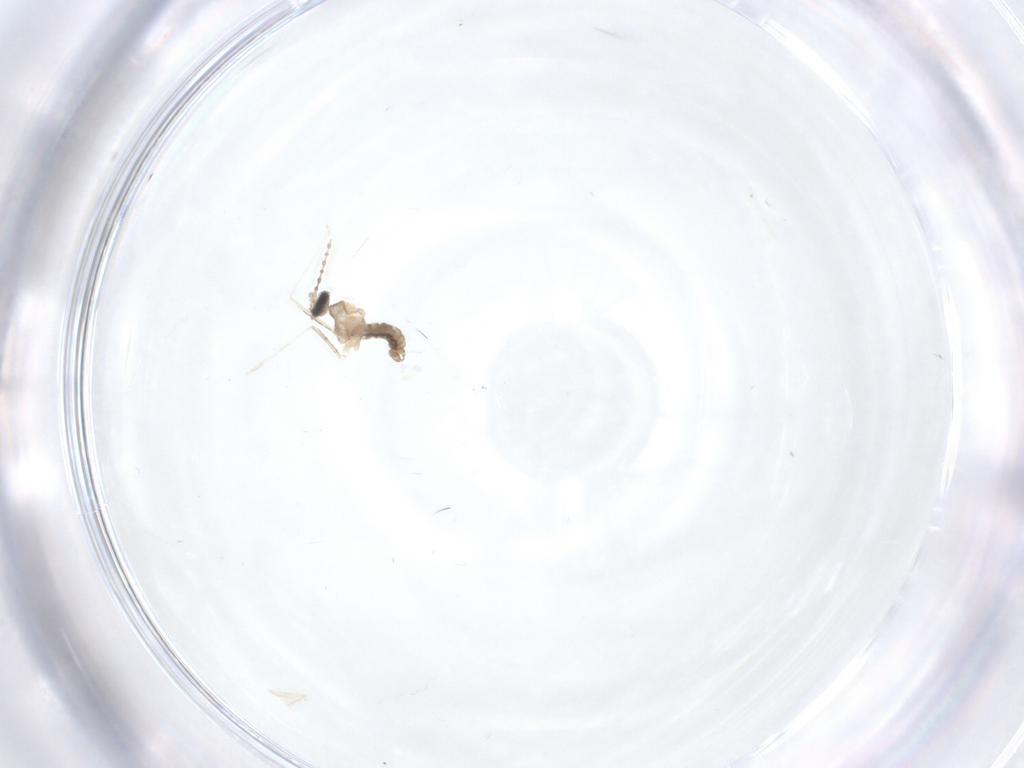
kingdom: Animalia
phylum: Arthropoda
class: Insecta
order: Diptera
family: Cecidomyiidae
